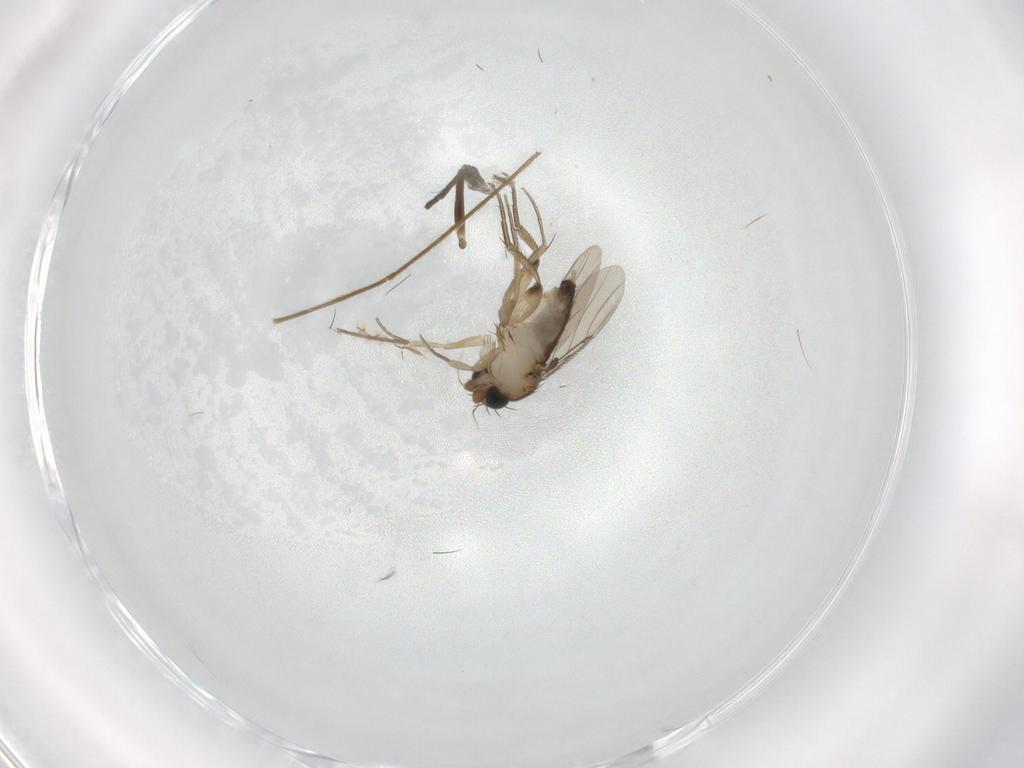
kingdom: Animalia
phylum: Arthropoda
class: Insecta
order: Diptera
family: Phoridae
